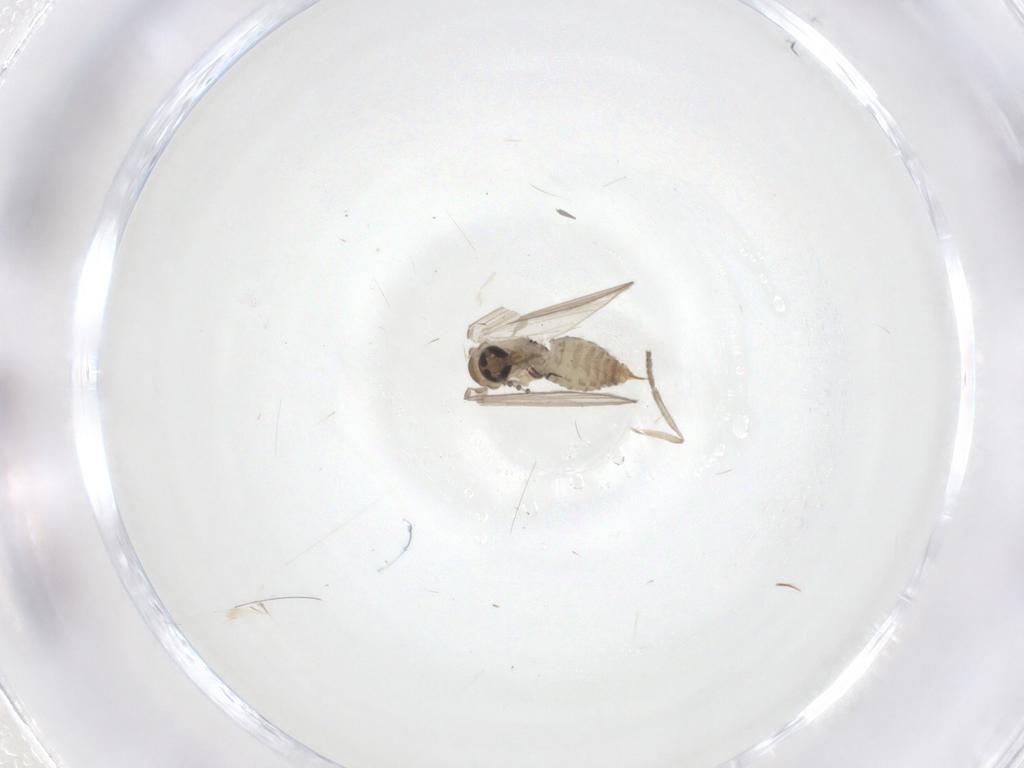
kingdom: Animalia
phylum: Arthropoda
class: Insecta
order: Diptera
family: Psychodidae
